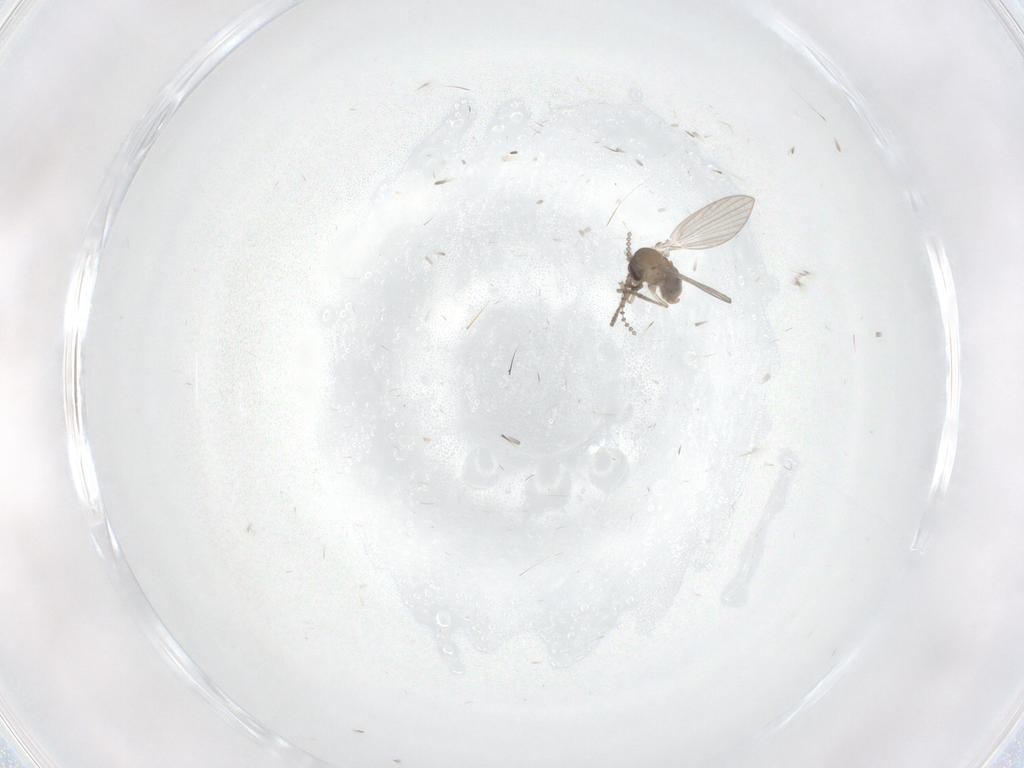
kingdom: Animalia
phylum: Arthropoda
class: Insecta
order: Diptera
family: Psychodidae
